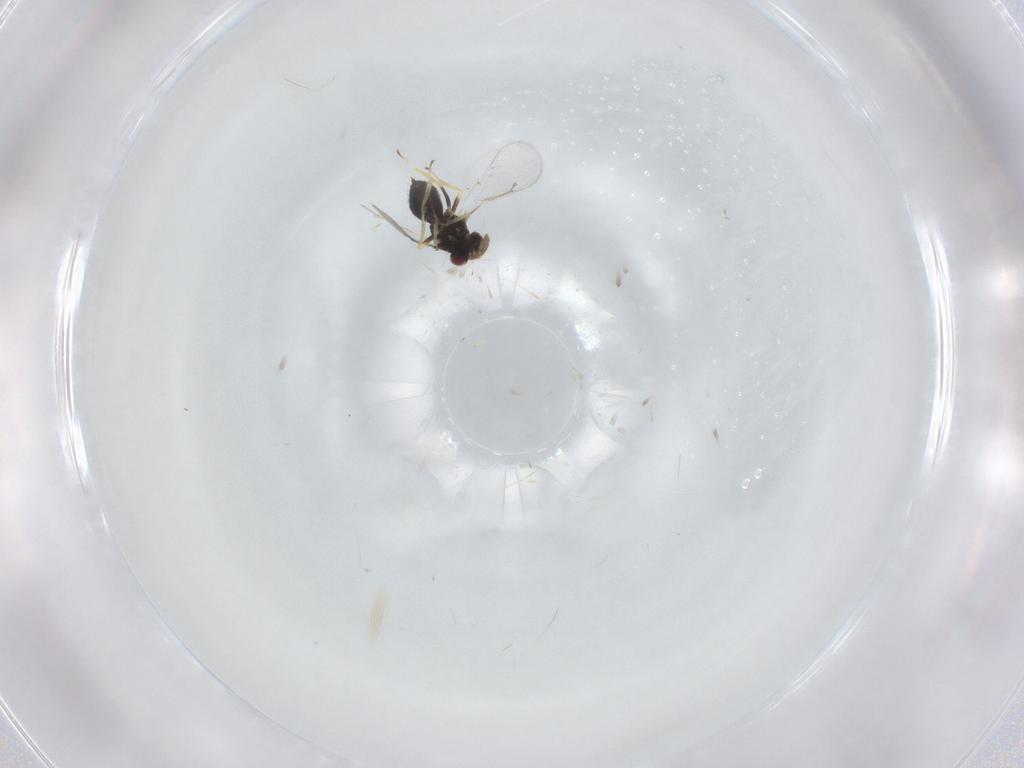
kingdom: Animalia
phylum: Arthropoda
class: Insecta
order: Hymenoptera
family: Eulophidae
